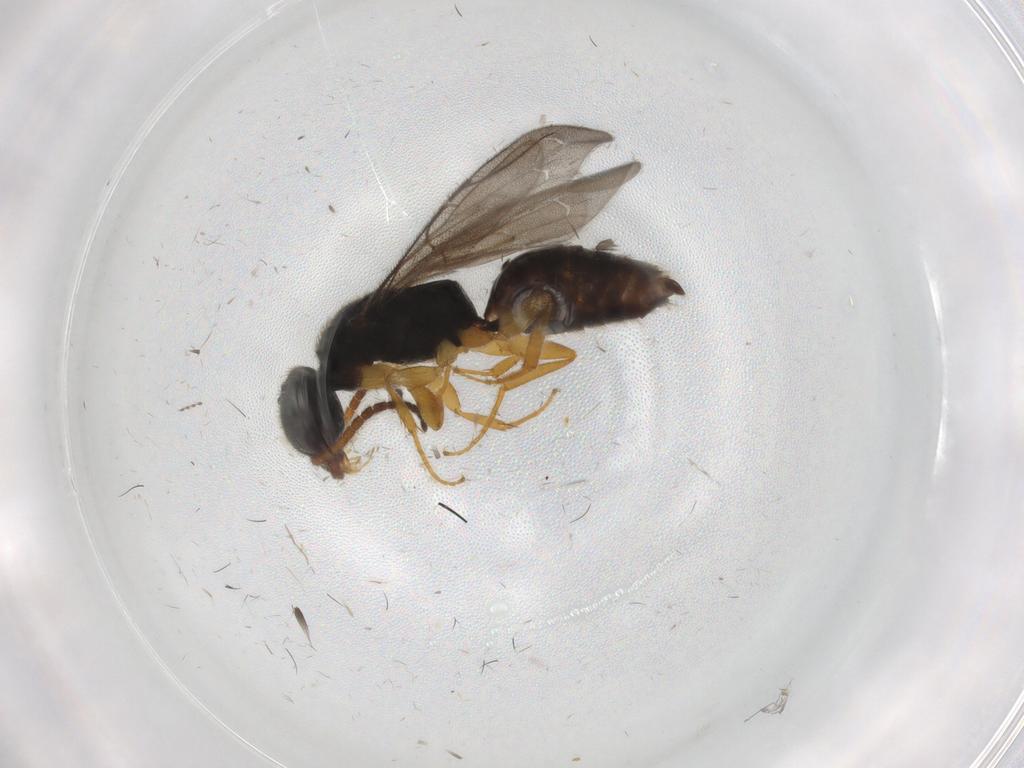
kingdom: Animalia
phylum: Arthropoda
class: Insecta
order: Hymenoptera
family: Bethylidae
